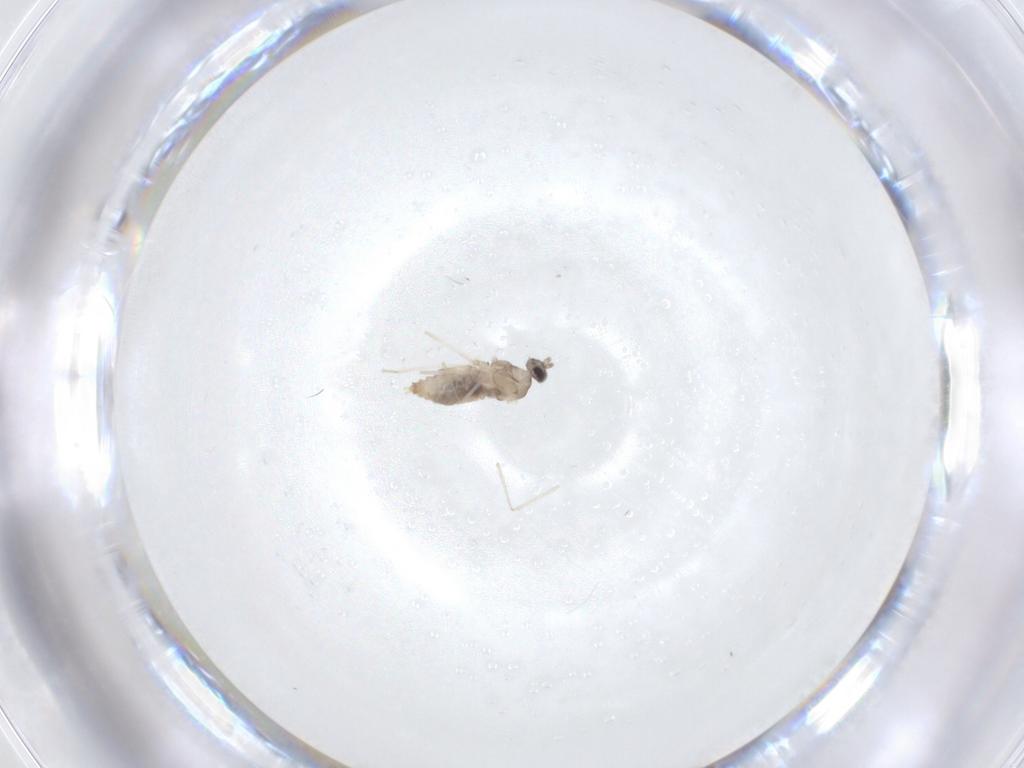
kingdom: Animalia
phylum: Arthropoda
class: Insecta
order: Diptera
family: Cecidomyiidae
